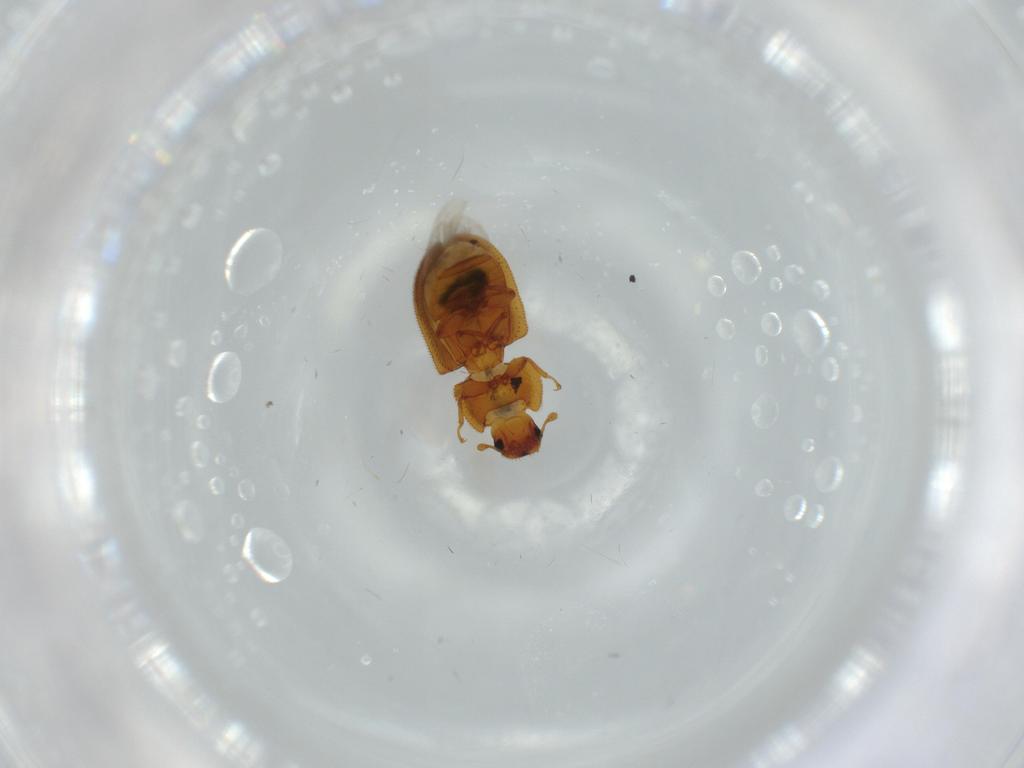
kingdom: Animalia
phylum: Arthropoda
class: Insecta
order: Coleoptera
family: Zopheridae
